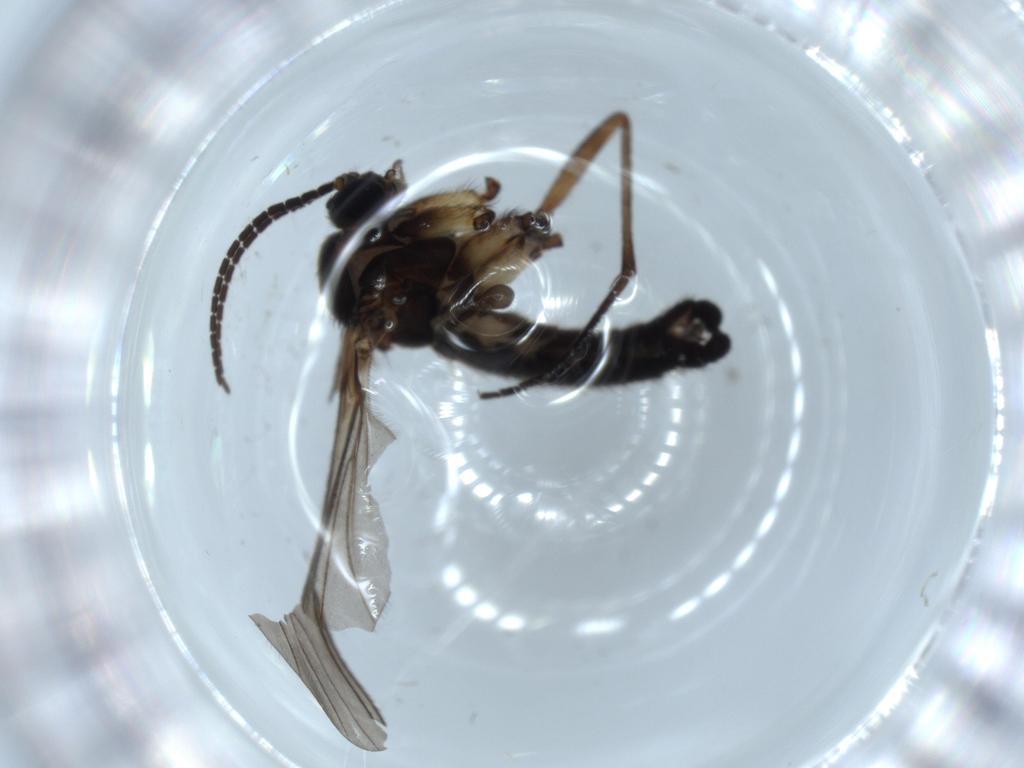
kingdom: Animalia
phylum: Arthropoda
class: Insecta
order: Diptera
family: Sciaridae
